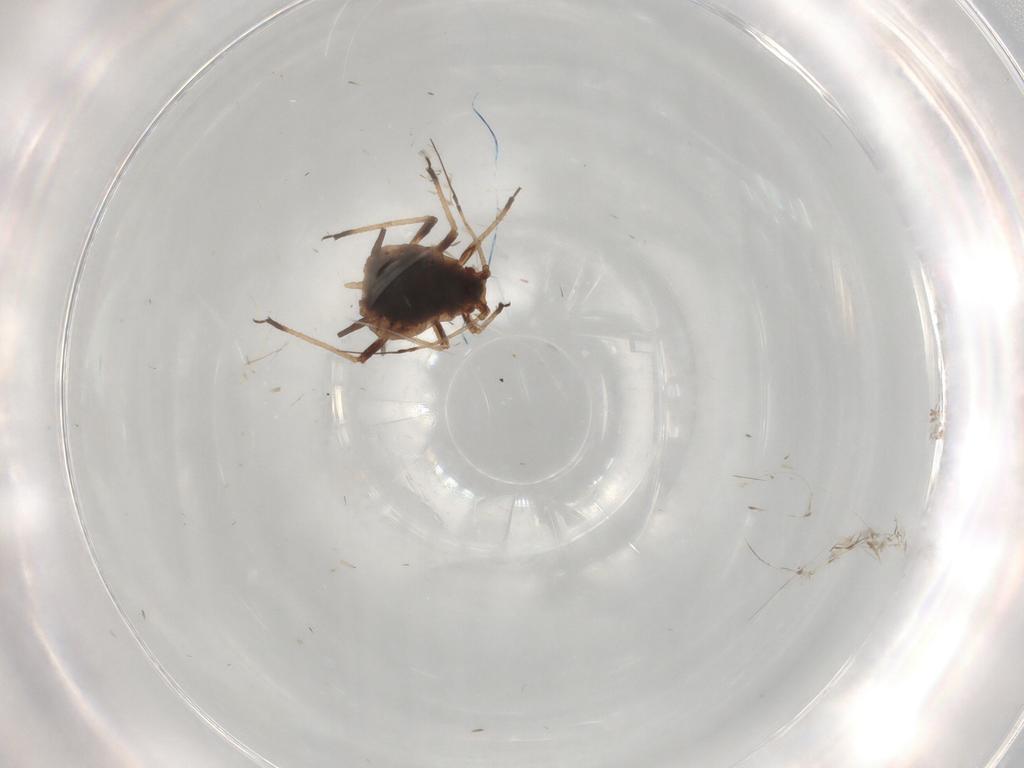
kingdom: Animalia
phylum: Arthropoda
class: Insecta
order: Hemiptera
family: Aphididae
